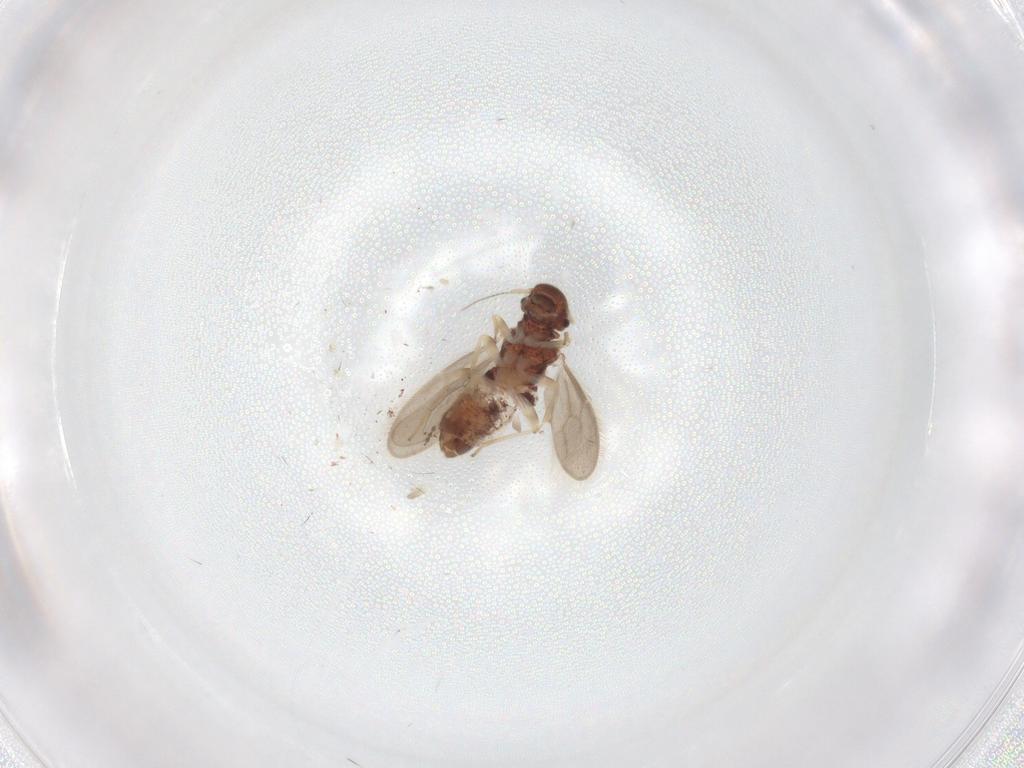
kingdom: Animalia
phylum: Arthropoda
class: Insecta
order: Psocodea
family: Archipsocidae
